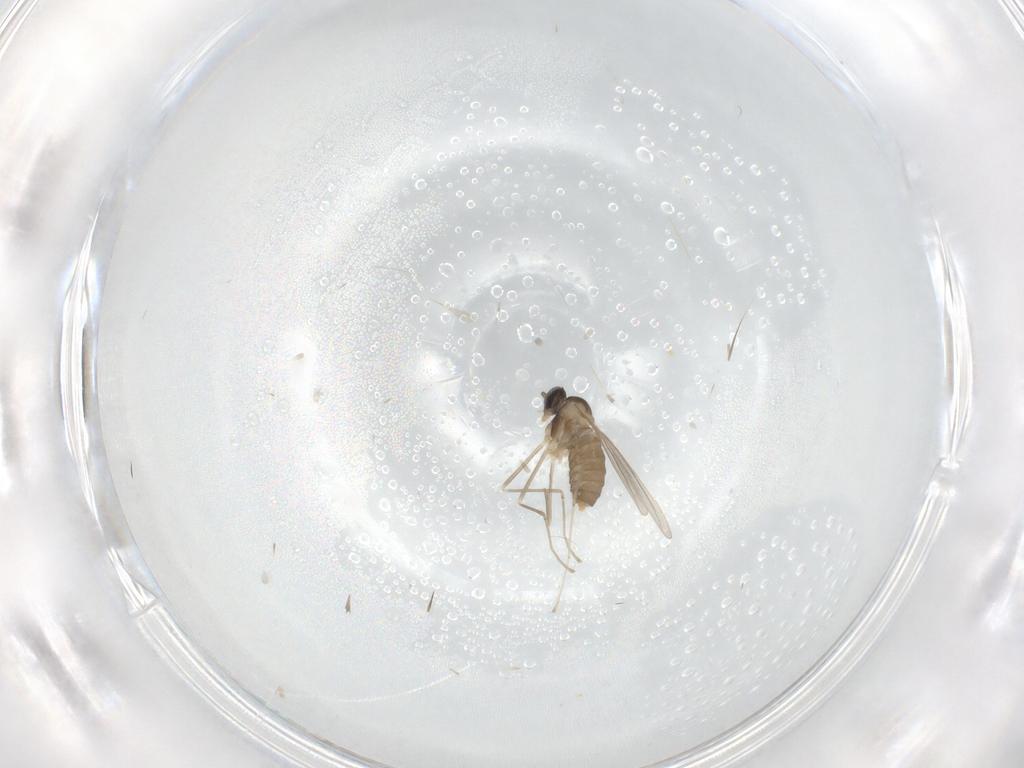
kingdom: Animalia
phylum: Arthropoda
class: Insecta
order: Diptera
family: Cecidomyiidae
